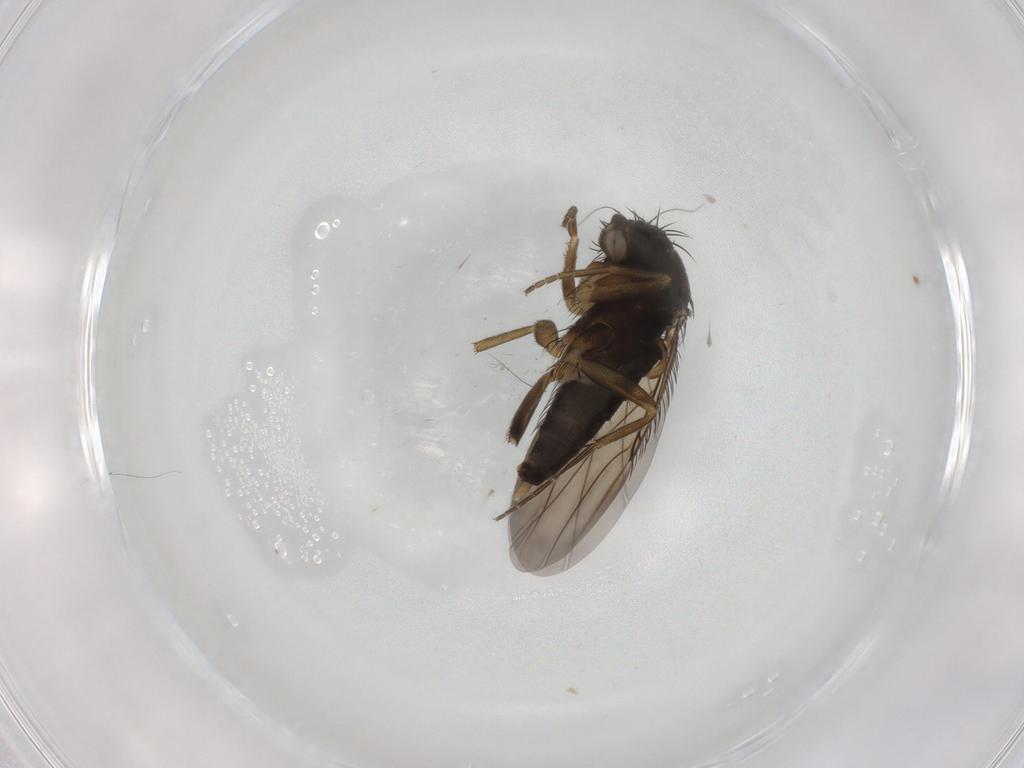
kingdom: Animalia
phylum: Arthropoda
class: Insecta
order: Diptera
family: Phoridae
